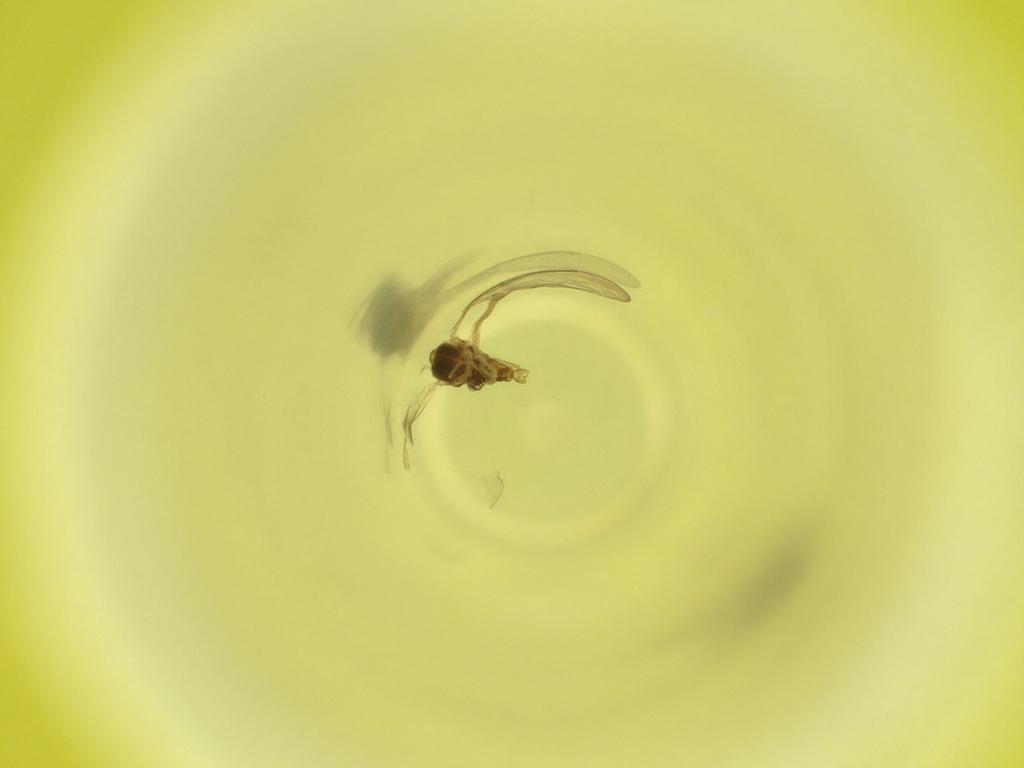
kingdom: Animalia
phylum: Arthropoda
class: Insecta
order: Diptera
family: Cecidomyiidae
